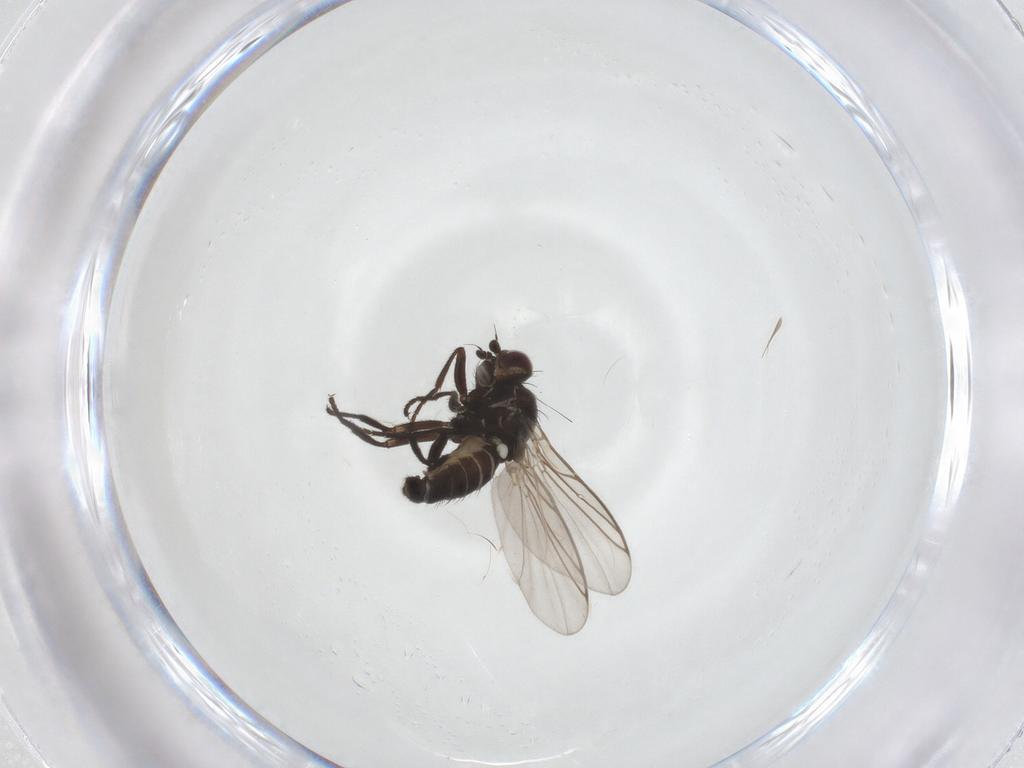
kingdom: Animalia
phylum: Arthropoda
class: Insecta
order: Diptera
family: Agromyzidae
